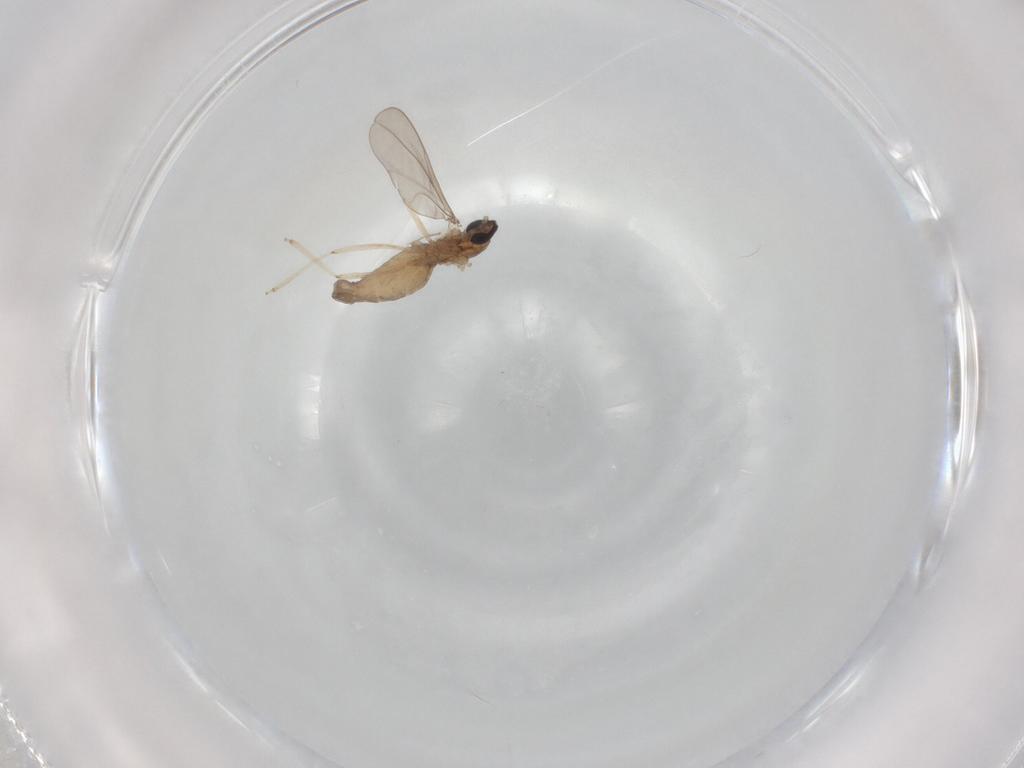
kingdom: Animalia
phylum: Arthropoda
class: Insecta
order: Diptera
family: Cecidomyiidae
